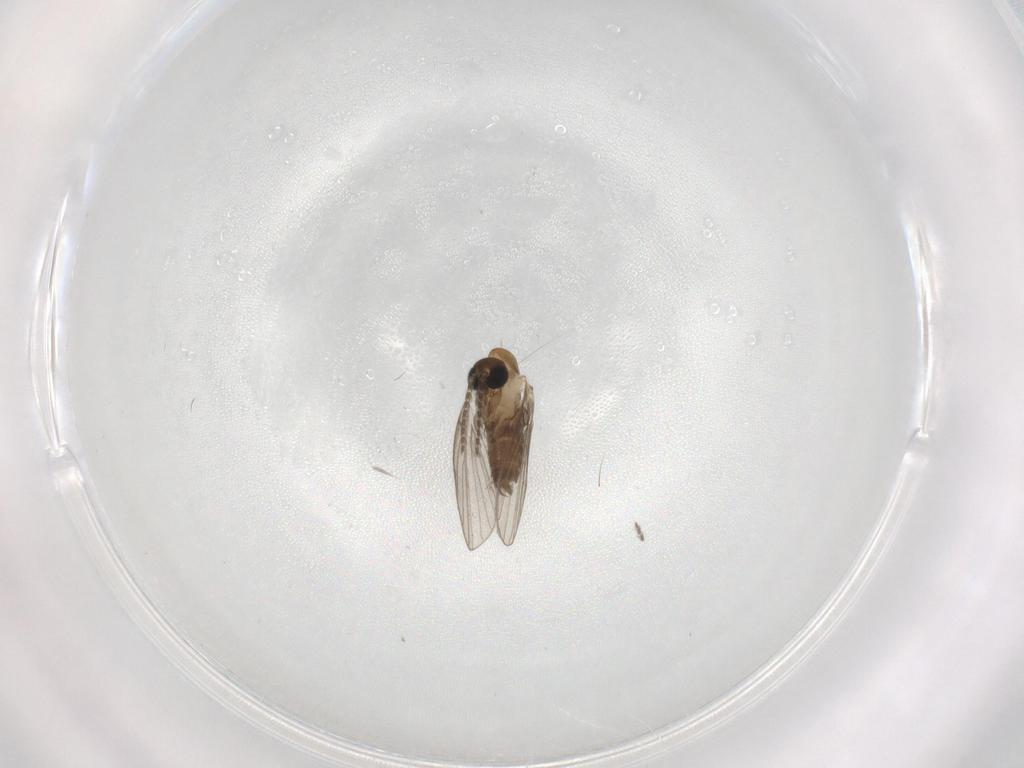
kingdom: Animalia
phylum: Arthropoda
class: Insecta
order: Diptera
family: Psychodidae
